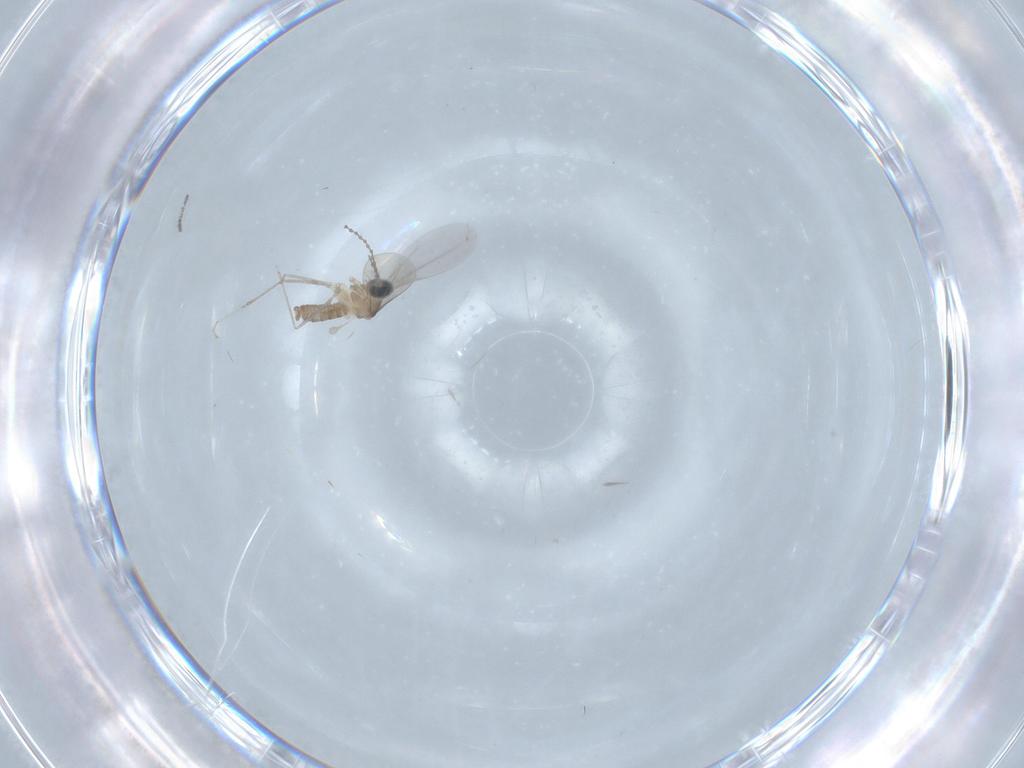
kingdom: Animalia
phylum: Arthropoda
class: Insecta
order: Diptera
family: Cecidomyiidae
